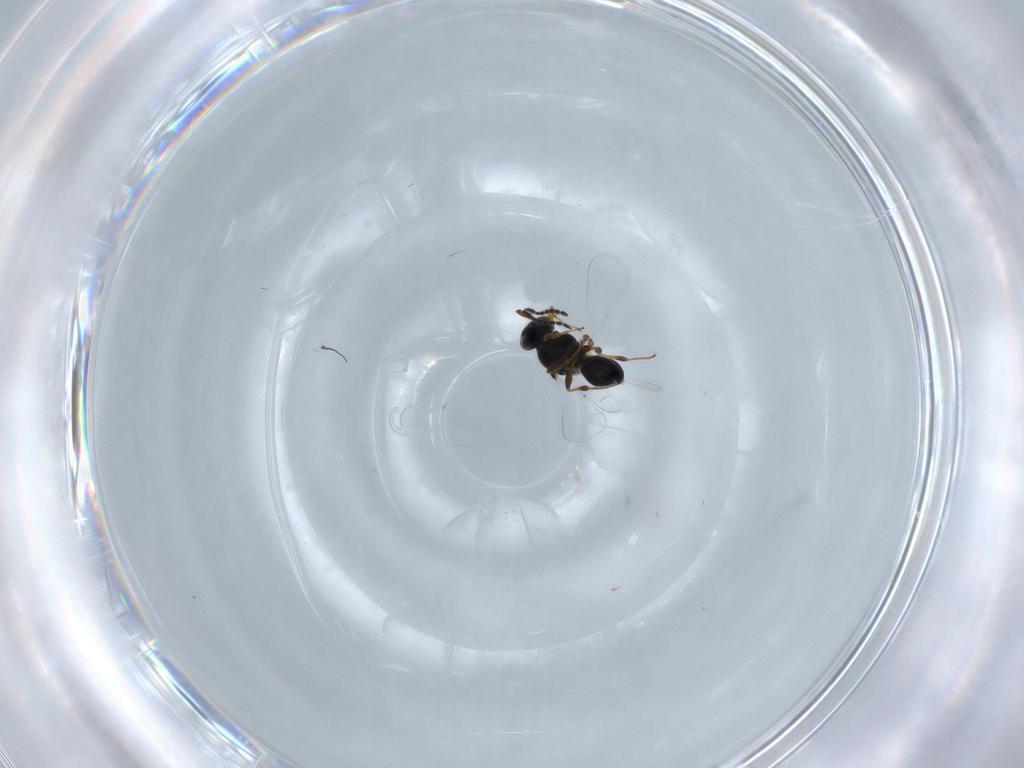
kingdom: Animalia
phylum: Arthropoda
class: Insecta
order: Hymenoptera
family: Platygastridae
